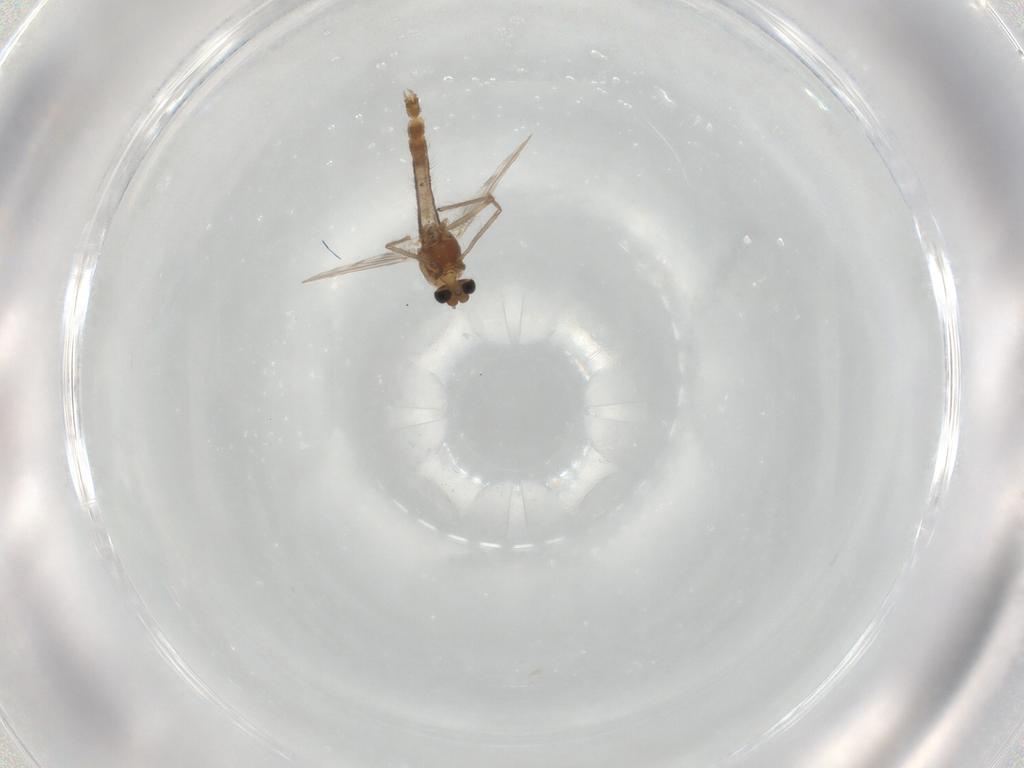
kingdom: Animalia
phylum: Arthropoda
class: Insecta
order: Diptera
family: Chironomidae
